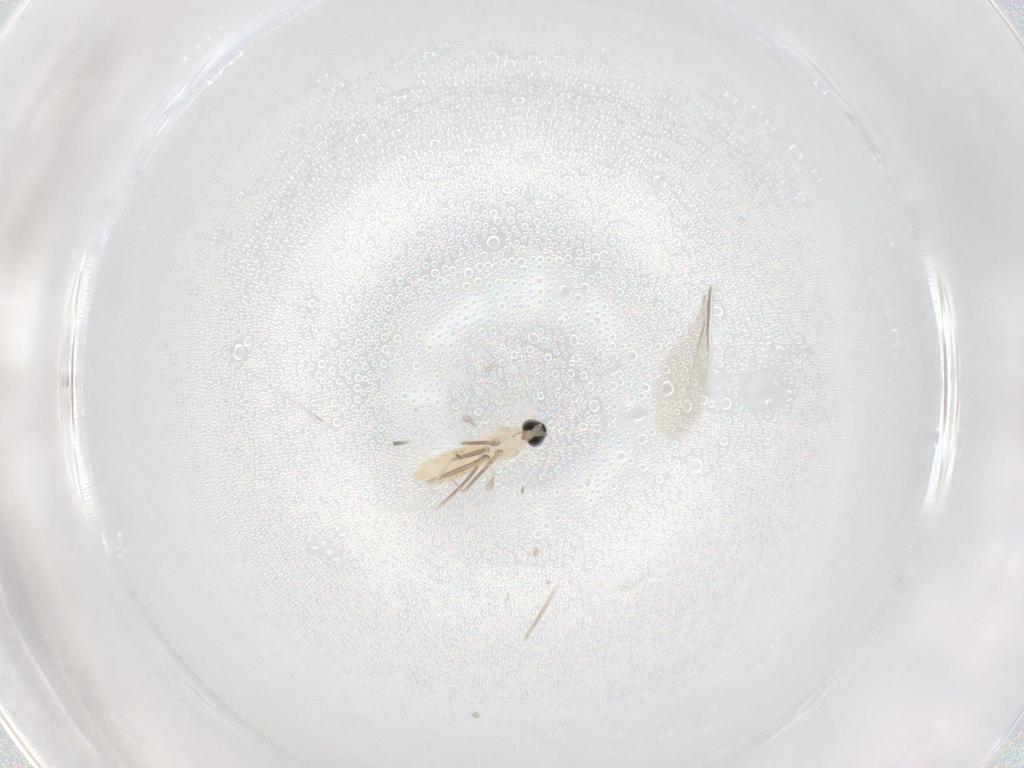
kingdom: Animalia
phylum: Arthropoda
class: Insecta
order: Diptera
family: Cecidomyiidae
